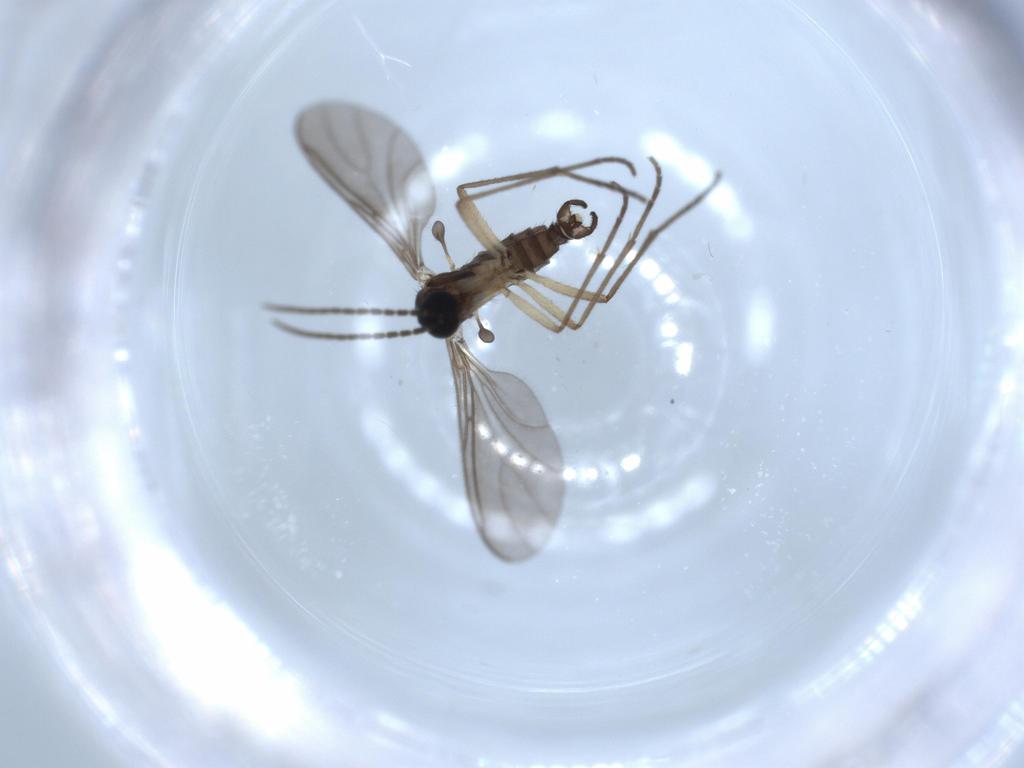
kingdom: Animalia
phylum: Arthropoda
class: Insecta
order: Diptera
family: Sciaridae
